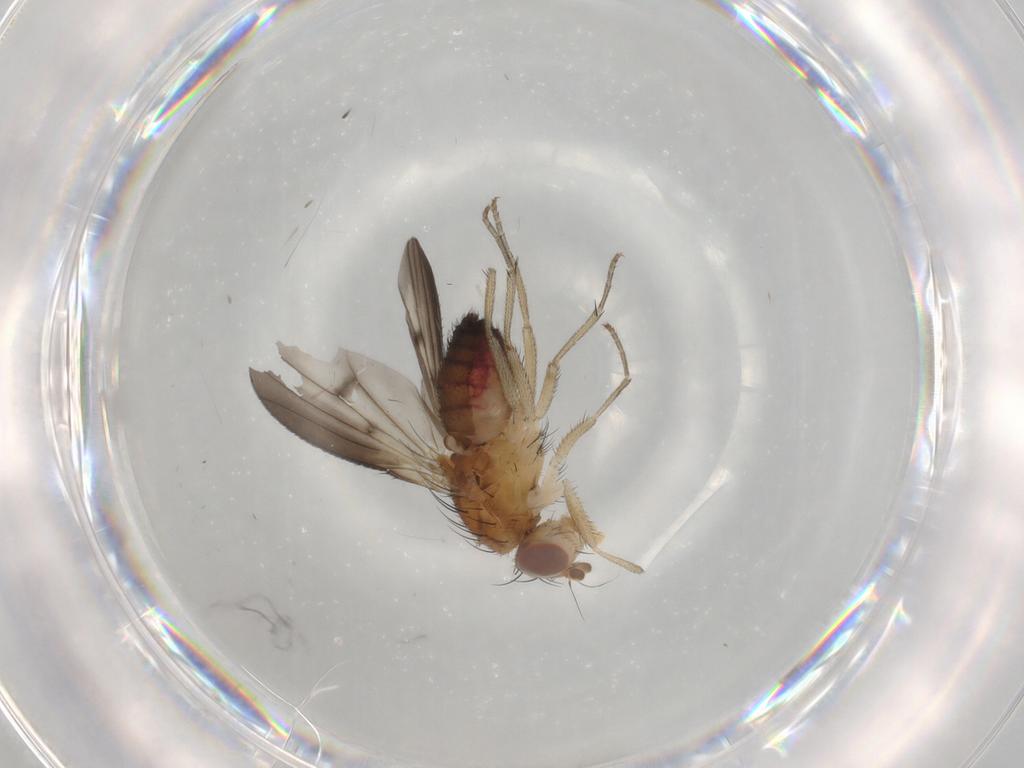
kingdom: Animalia
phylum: Arthropoda
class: Insecta
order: Diptera
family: Heleomyzidae
